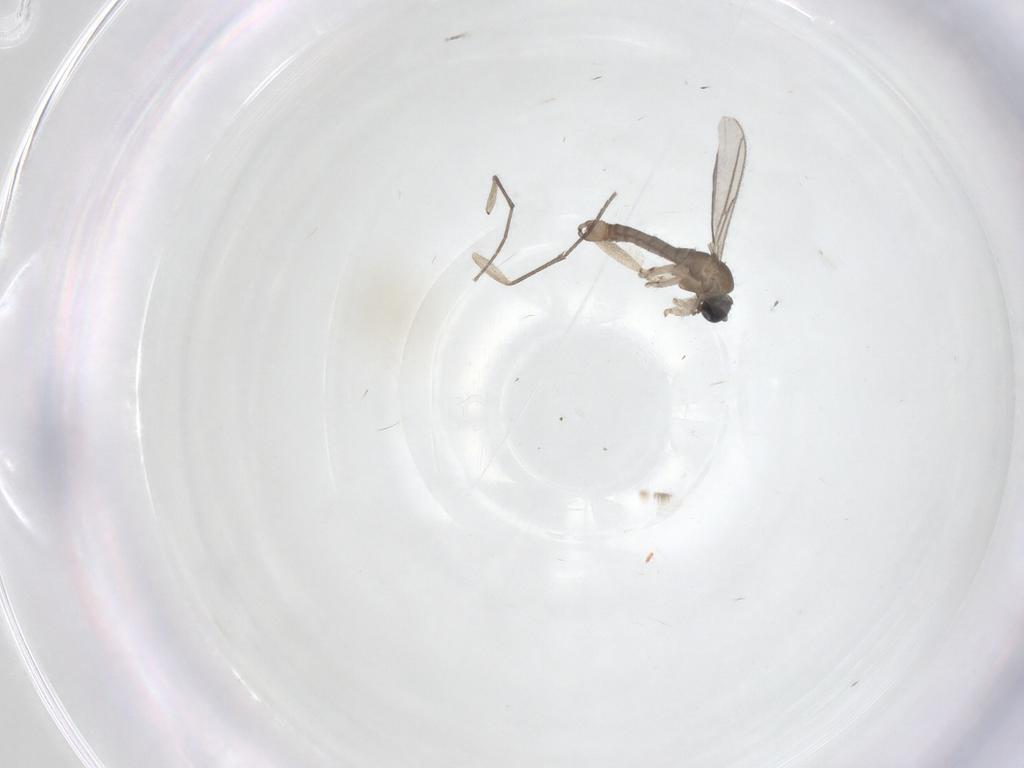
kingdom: Animalia
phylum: Arthropoda
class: Insecta
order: Diptera
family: Sciaridae
